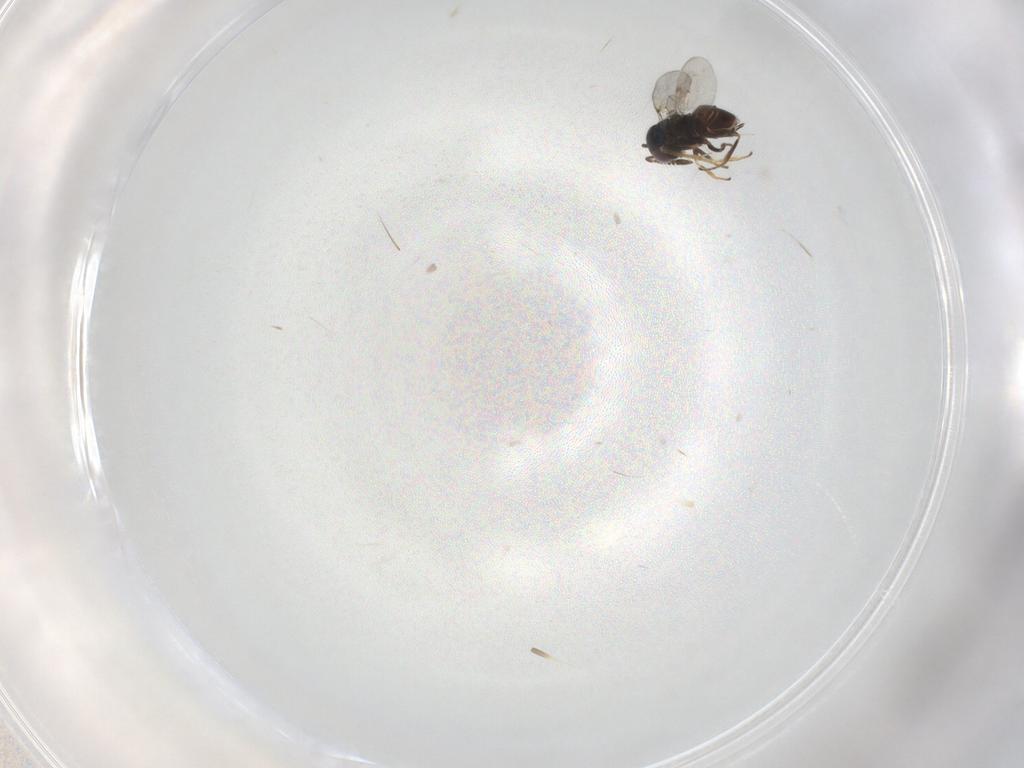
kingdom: Animalia
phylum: Arthropoda
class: Insecta
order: Hymenoptera
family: Encyrtidae
